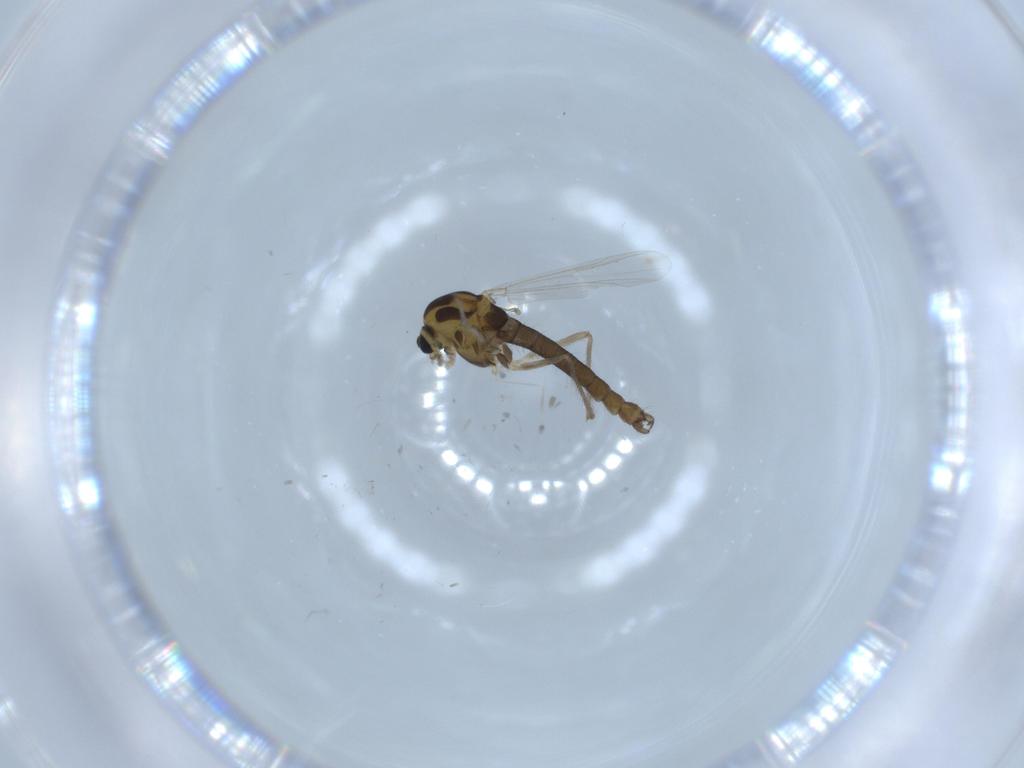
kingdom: Animalia
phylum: Arthropoda
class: Insecta
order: Diptera
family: Chironomidae
